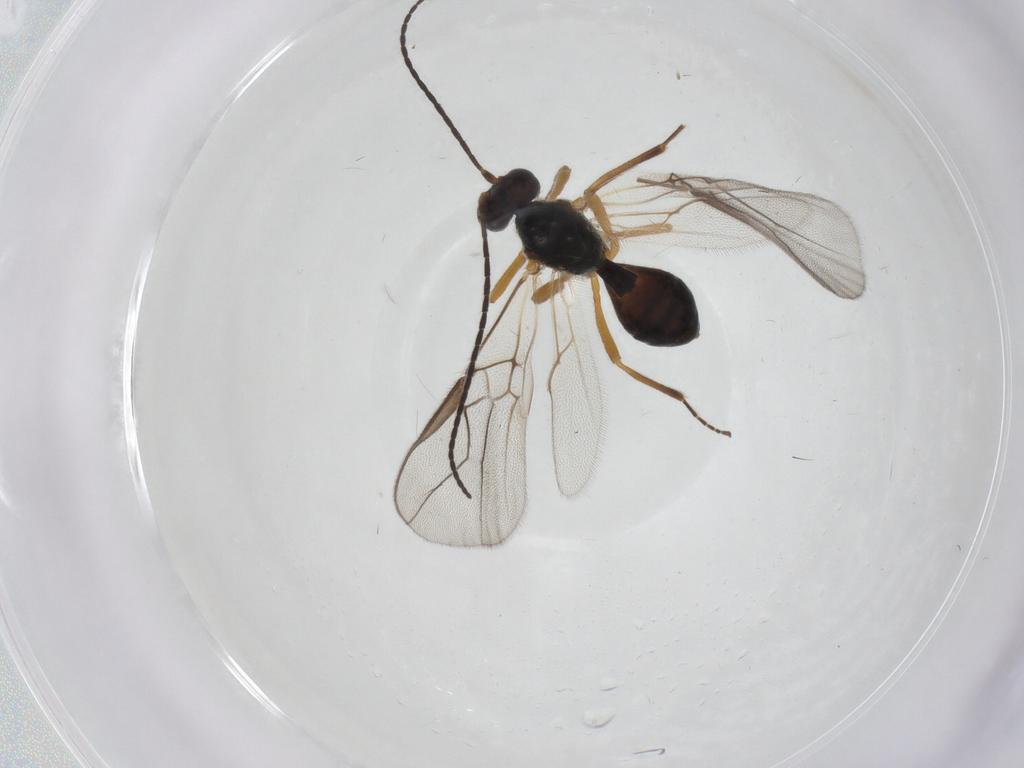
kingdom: Animalia
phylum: Arthropoda
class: Insecta
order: Hymenoptera
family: Braconidae
